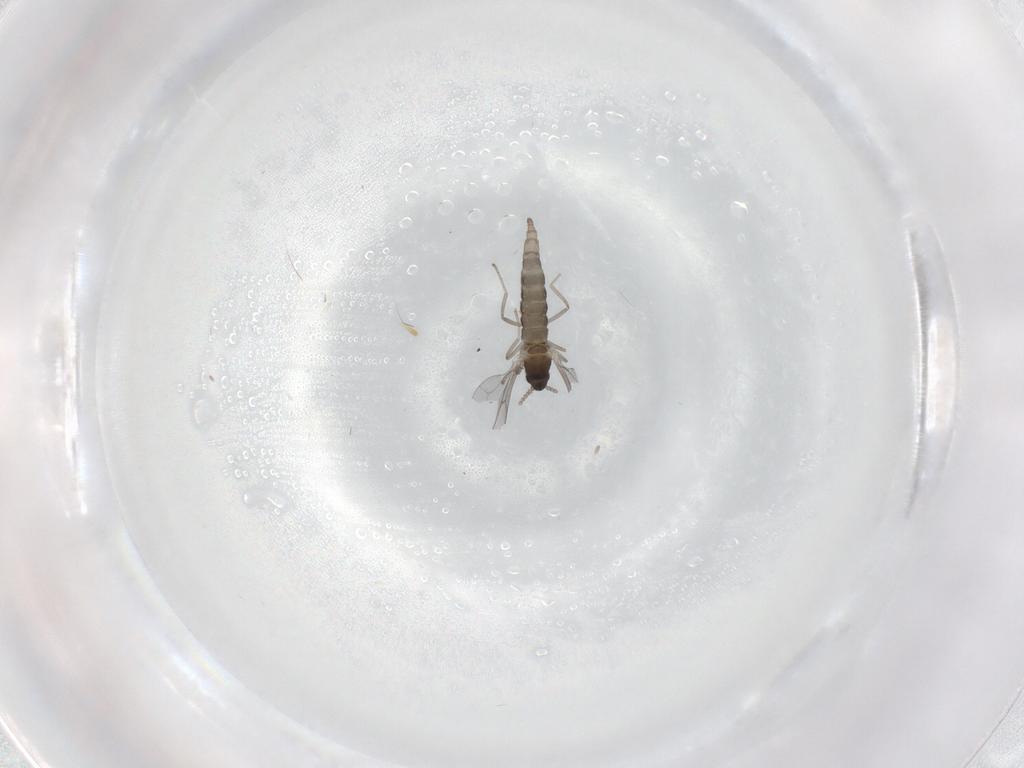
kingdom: Animalia
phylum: Arthropoda
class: Insecta
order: Diptera
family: Cecidomyiidae
